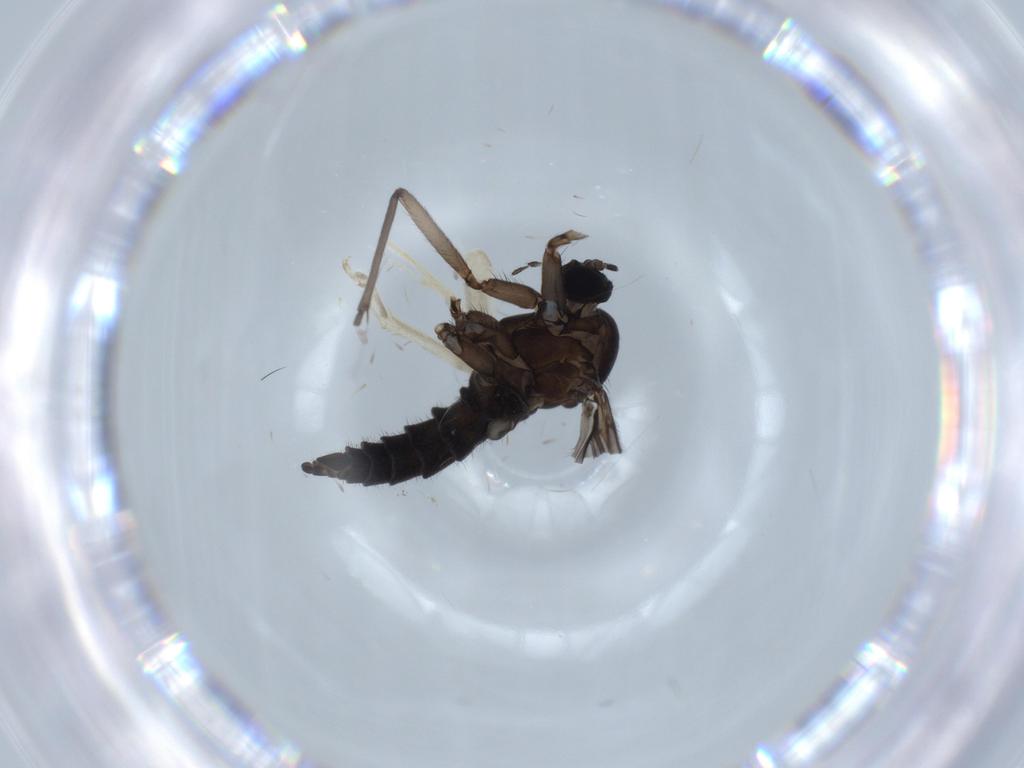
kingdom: Animalia
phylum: Arthropoda
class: Insecta
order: Diptera
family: Sciaridae
